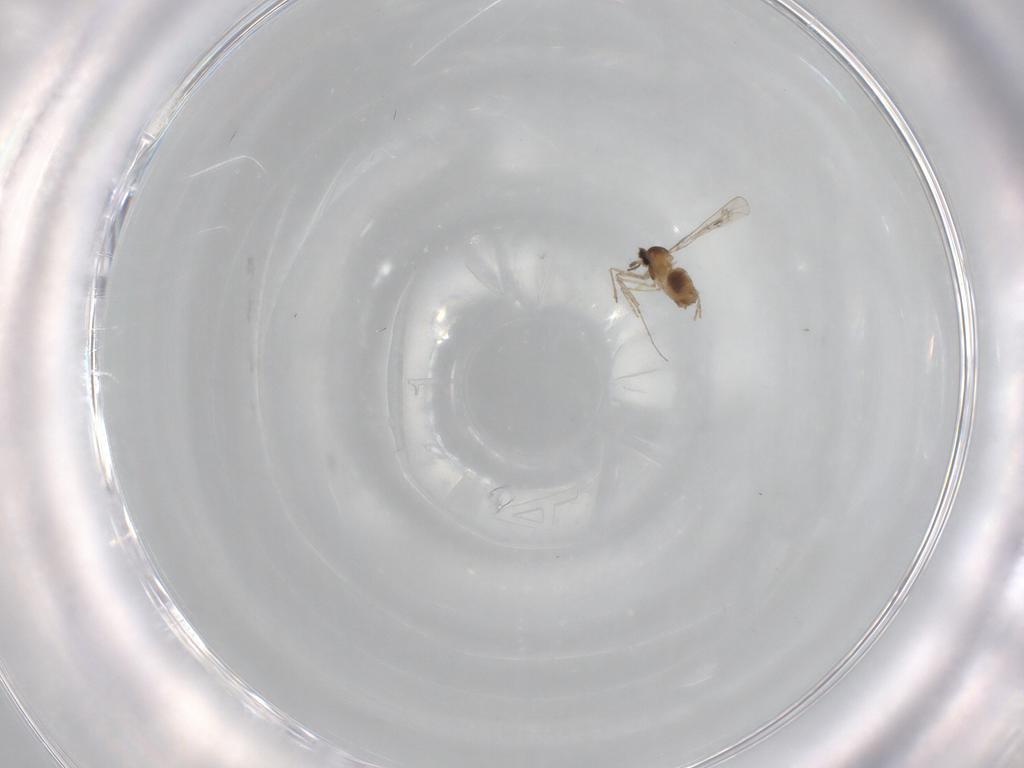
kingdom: Animalia
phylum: Arthropoda
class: Insecta
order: Diptera
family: Cecidomyiidae
